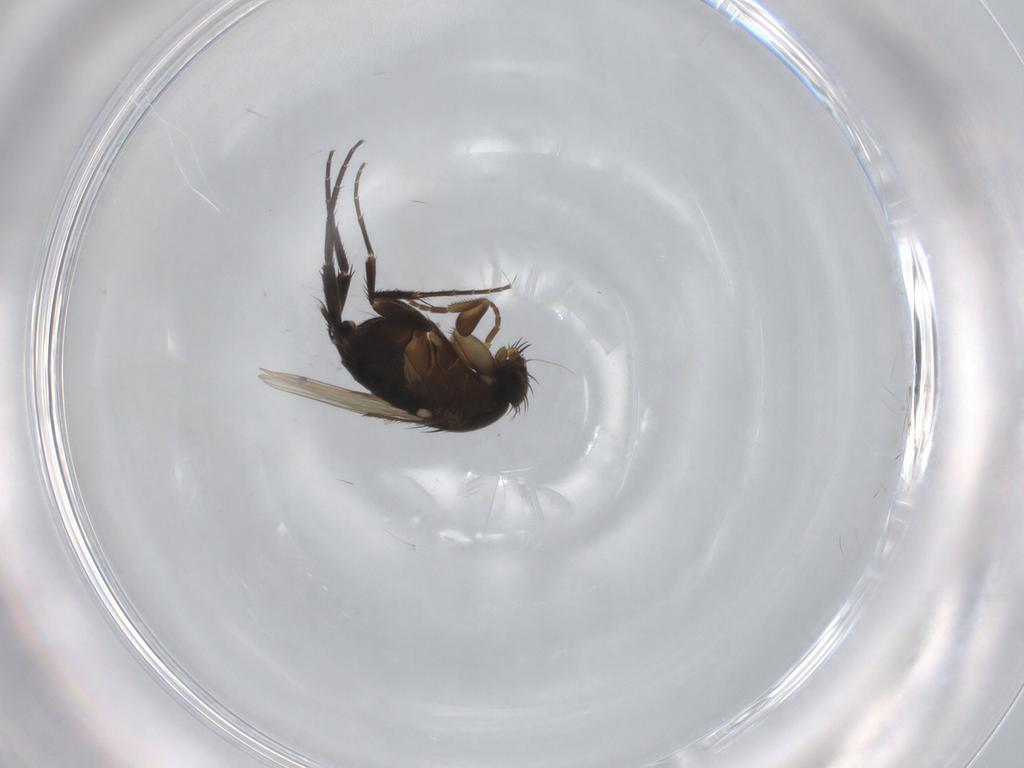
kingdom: Animalia
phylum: Arthropoda
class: Insecta
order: Diptera
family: Phoridae
